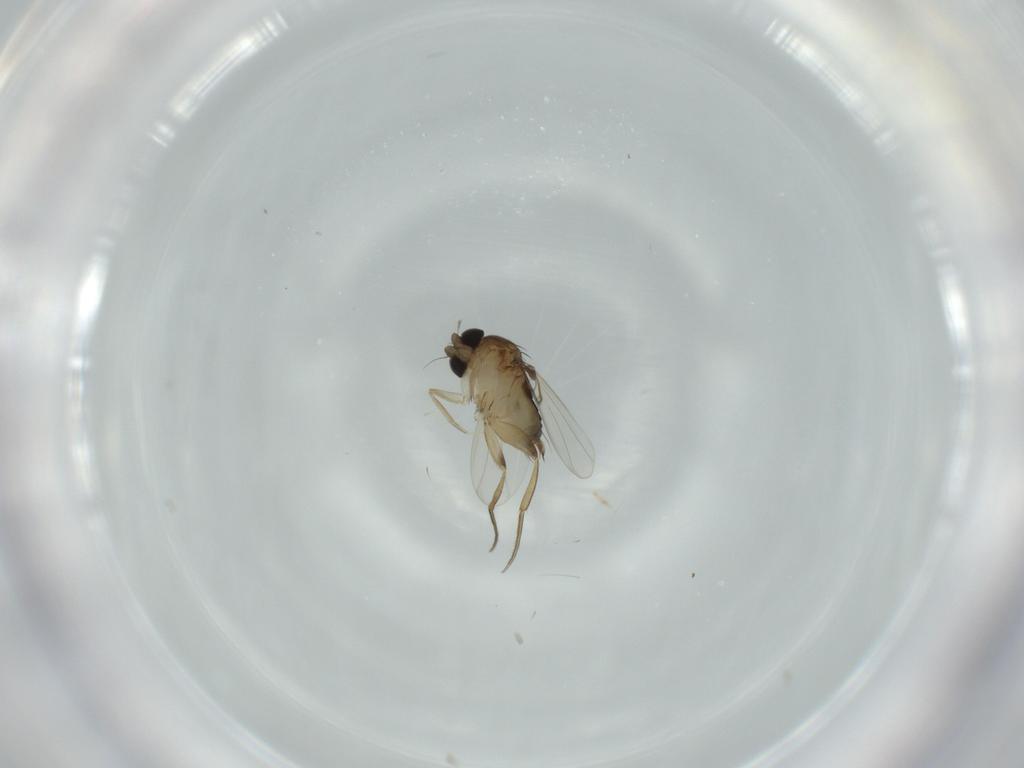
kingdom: Animalia
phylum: Arthropoda
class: Insecta
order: Diptera
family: Phoridae
